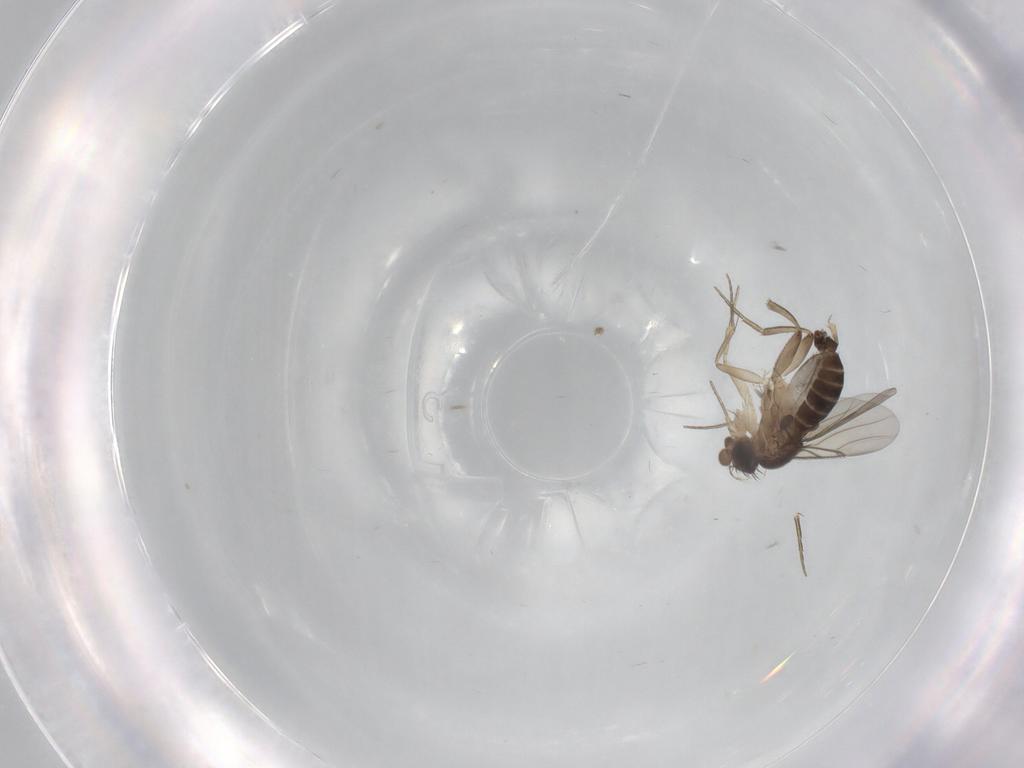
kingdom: Animalia
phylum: Arthropoda
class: Insecta
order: Diptera
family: Phoridae
